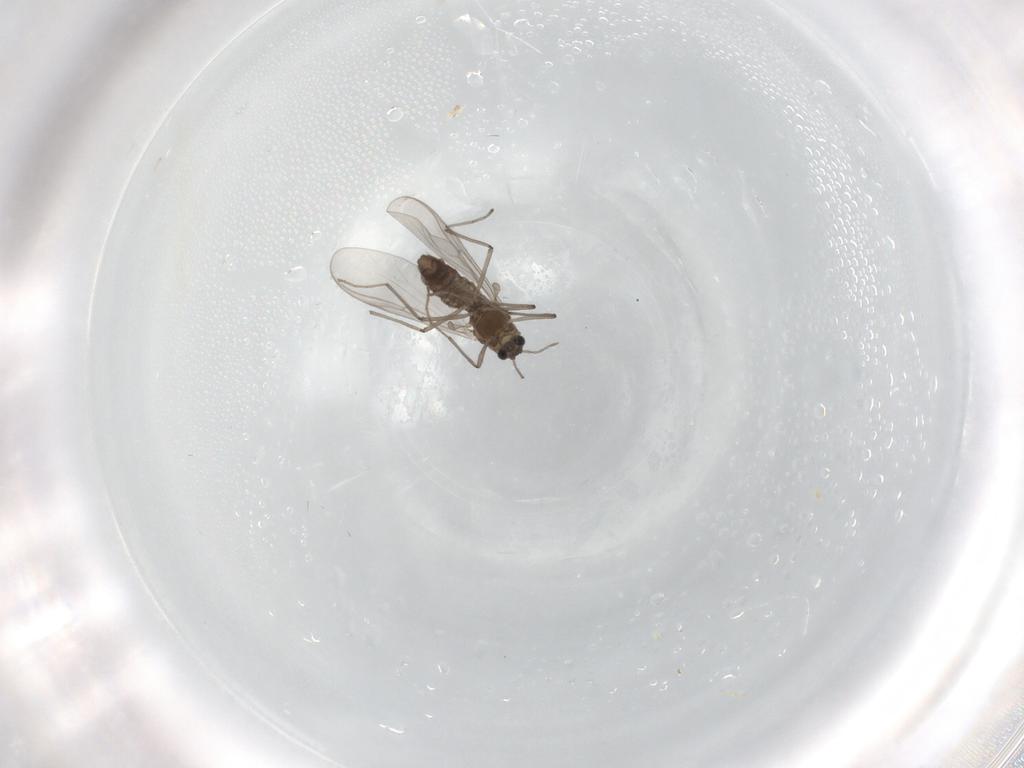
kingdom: Animalia
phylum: Arthropoda
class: Insecta
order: Diptera
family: Chironomidae
